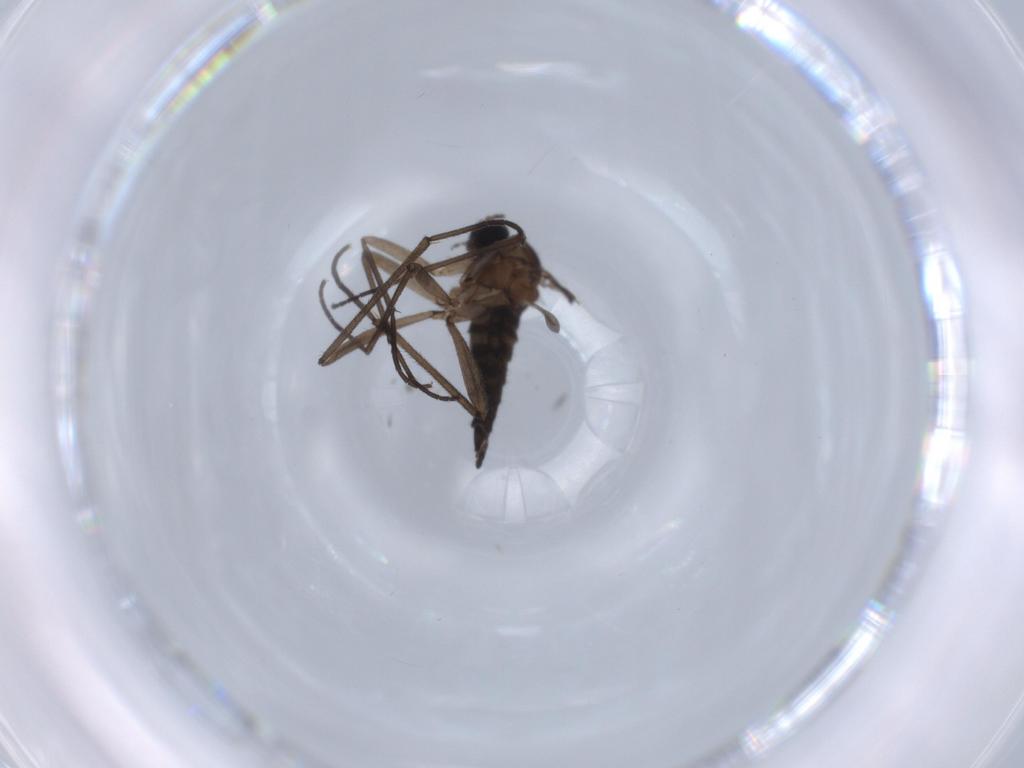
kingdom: Animalia
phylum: Arthropoda
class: Insecta
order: Diptera
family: Sciaridae
